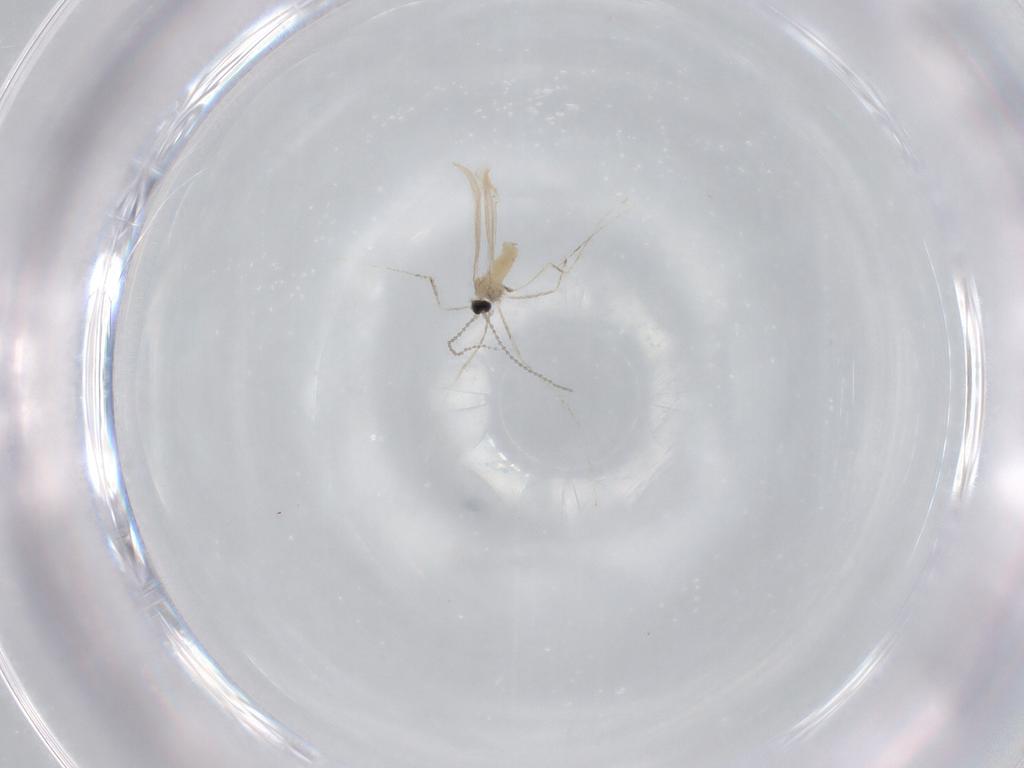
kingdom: Animalia
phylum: Arthropoda
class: Insecta
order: Diptera
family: Cecidomyiidae
